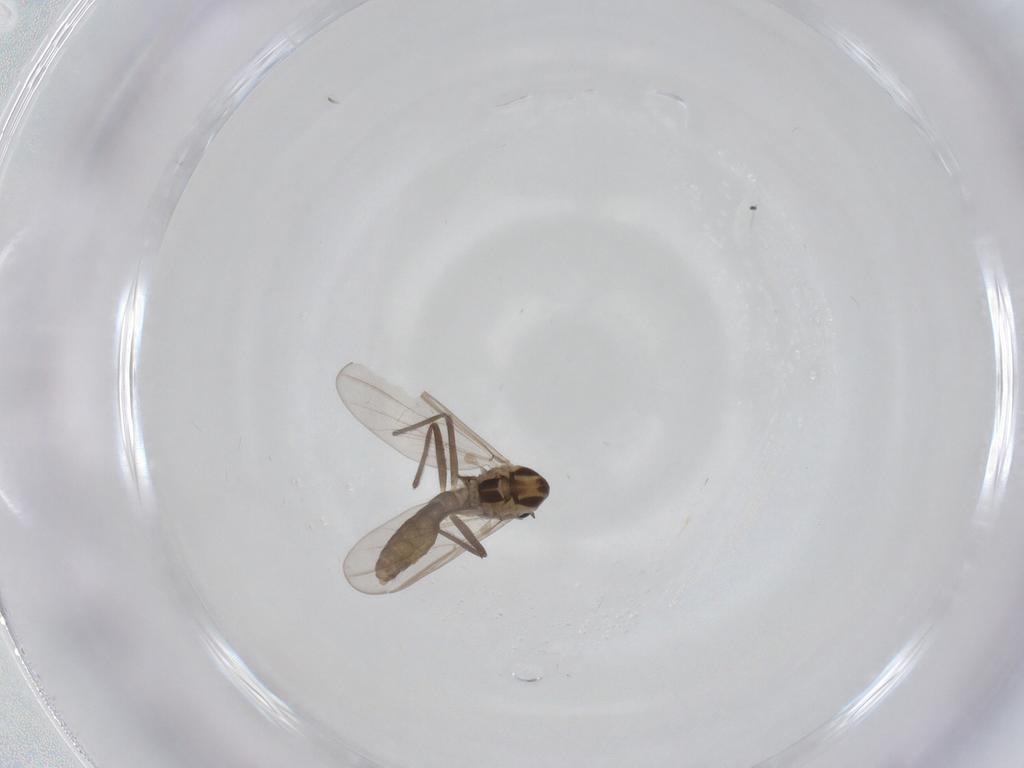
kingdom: Animalia
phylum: Arthropoda
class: Insecta
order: Diptera
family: Chironomidae
